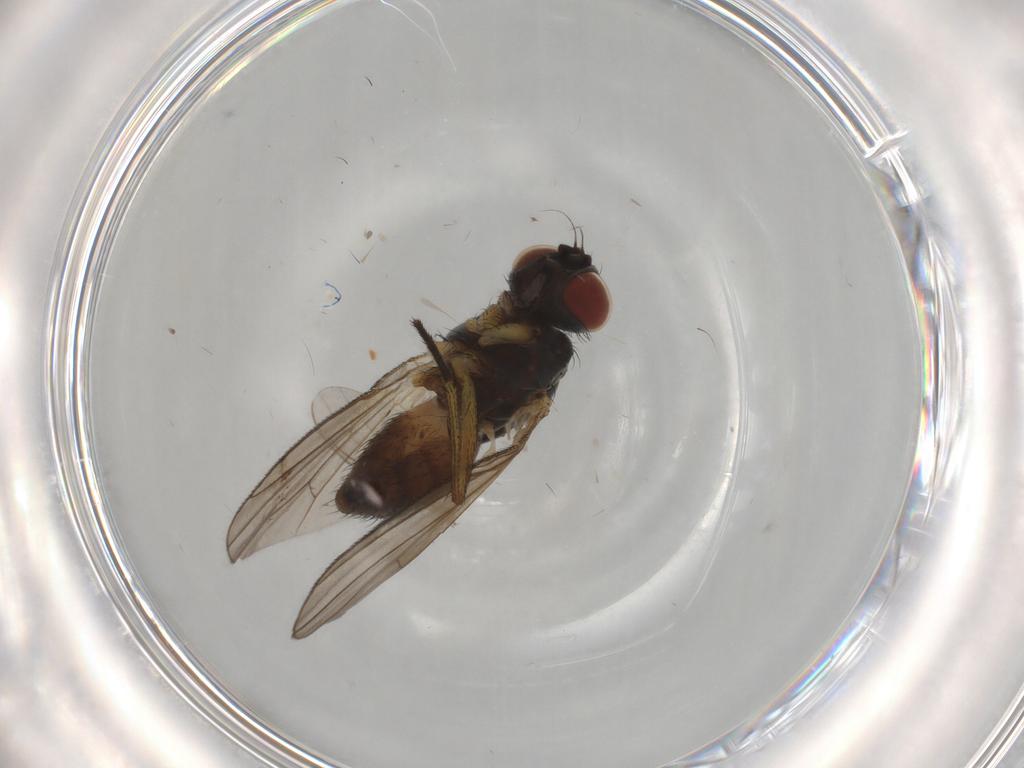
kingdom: Animalia
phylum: Arthropoda
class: Insecta
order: Diptera
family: Muscidae
